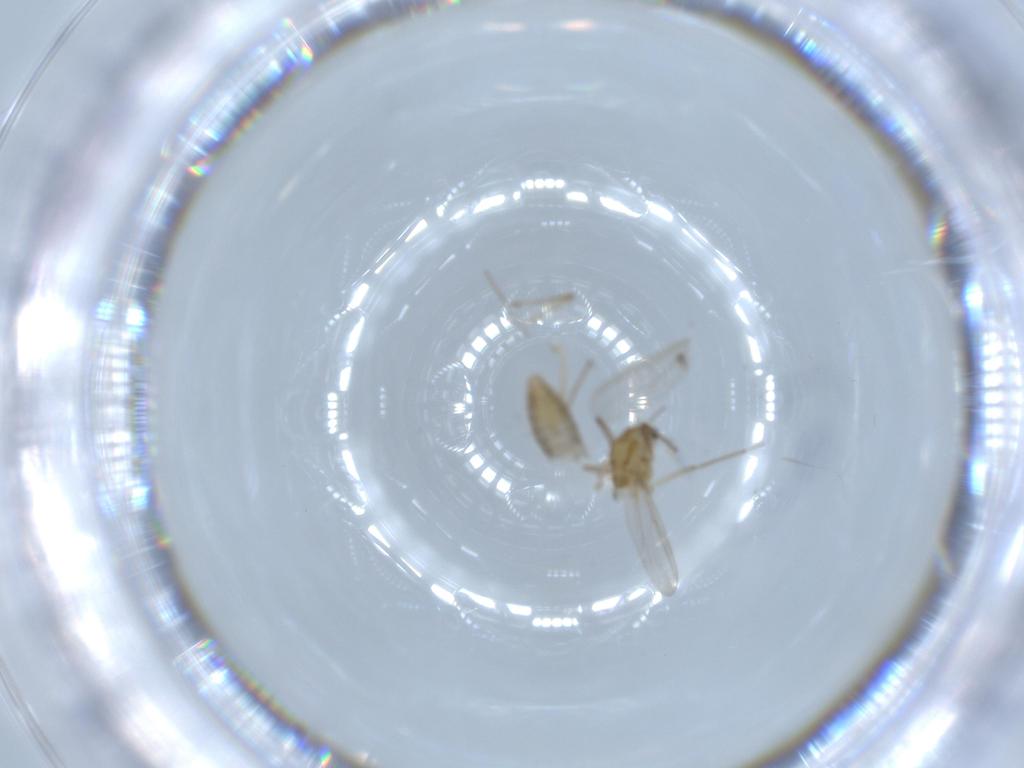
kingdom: Animalia
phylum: Arthropoda
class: Insecta
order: Diptera
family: Chironomidae
